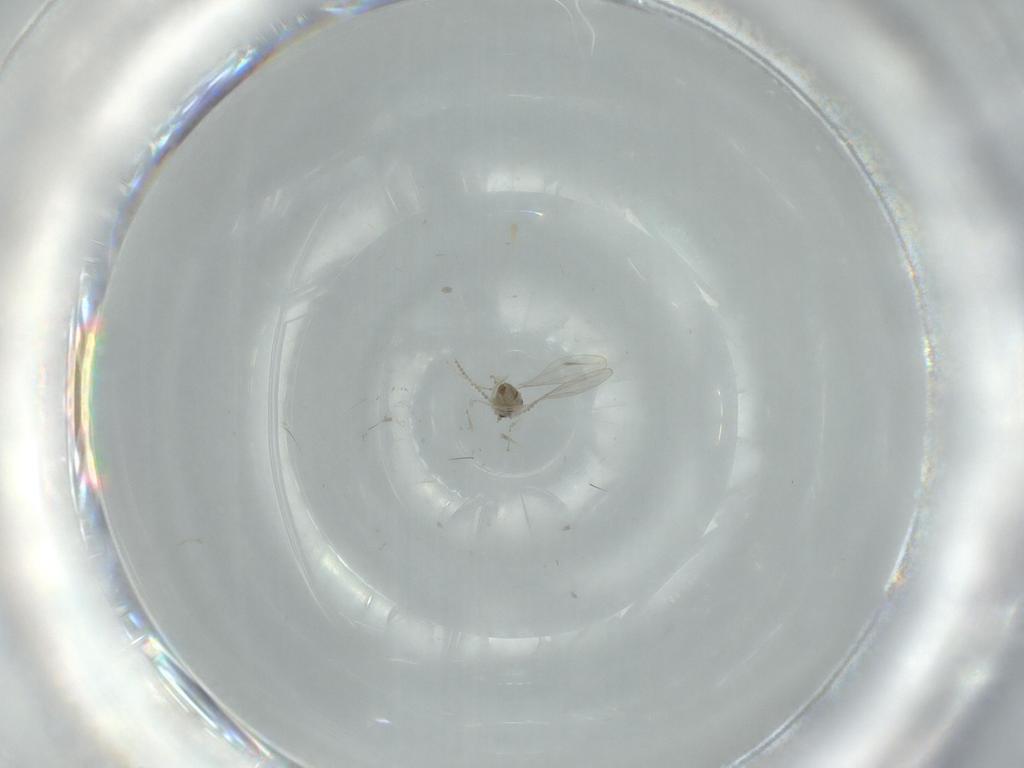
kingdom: Animalia
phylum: Arthropoda
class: Insecta
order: Diptera
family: Cecidomyiidae
